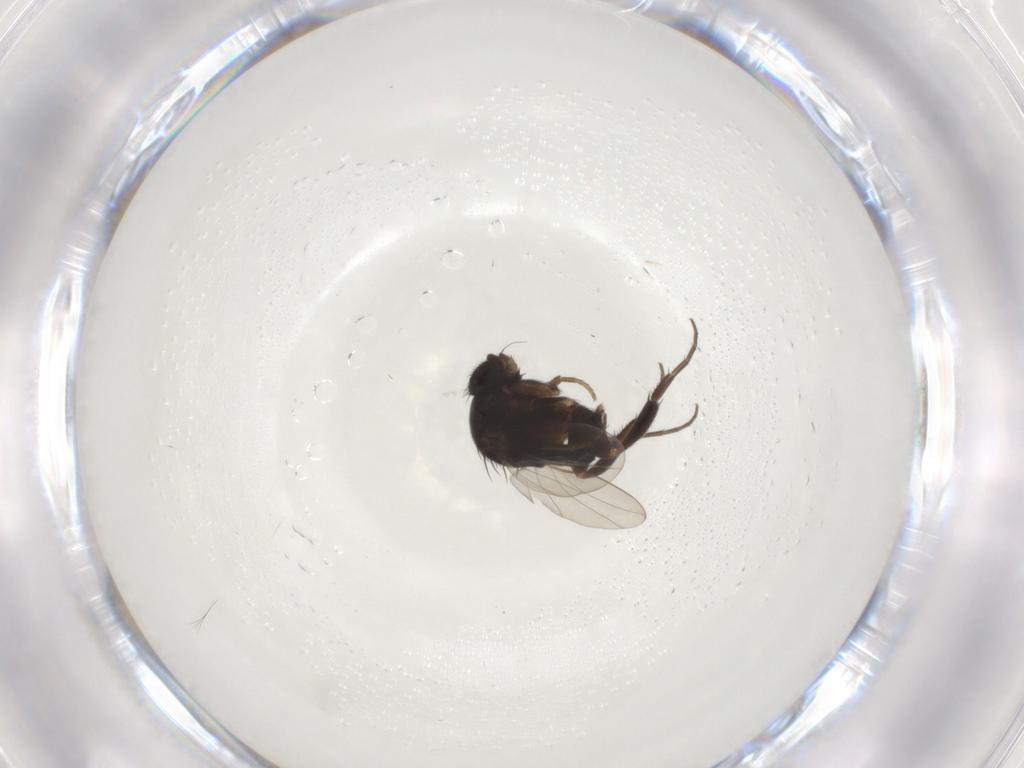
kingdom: Animalia
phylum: Arthropoda
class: Insecta
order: Diptera
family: Phoridae
